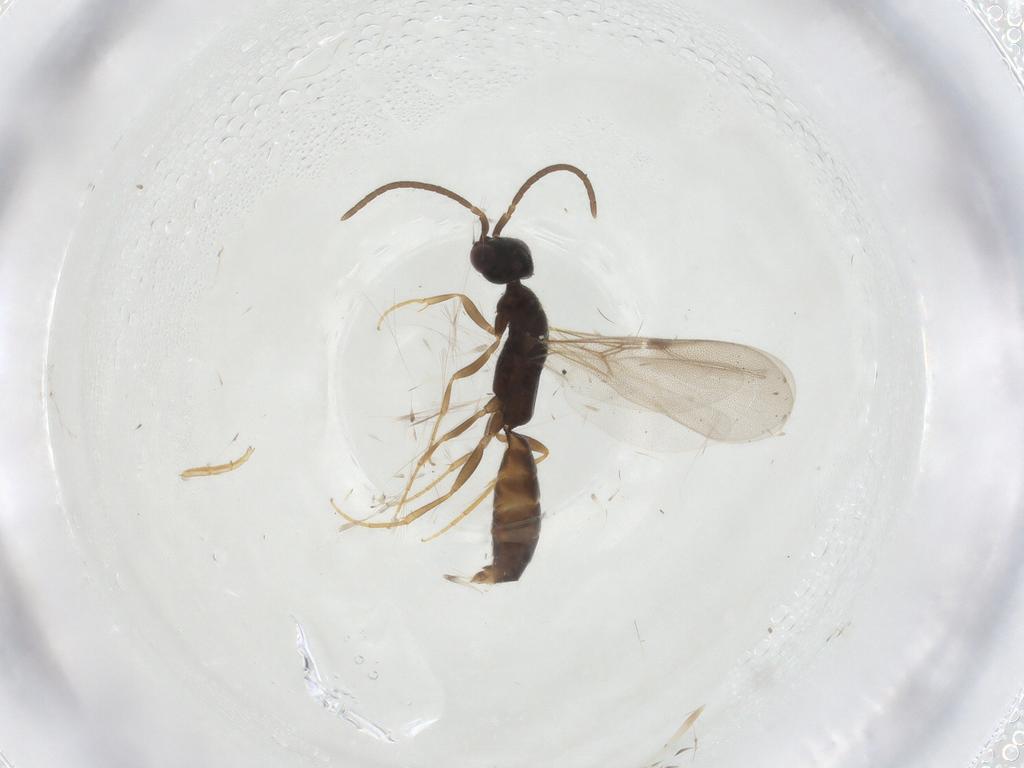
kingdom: Animalia
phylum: Arthropoda
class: Insecta
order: Hymenoptera
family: Bethylidae
